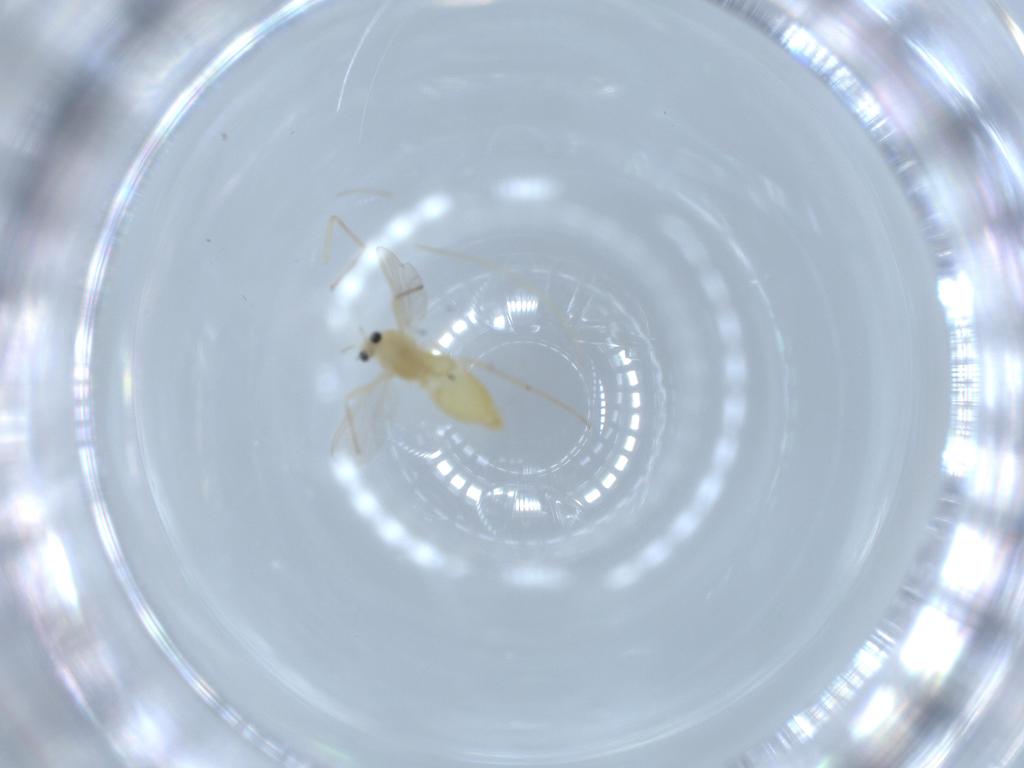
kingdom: Animalia
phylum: Arthropoda
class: Insecta
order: Diptera
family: Chironomidae
